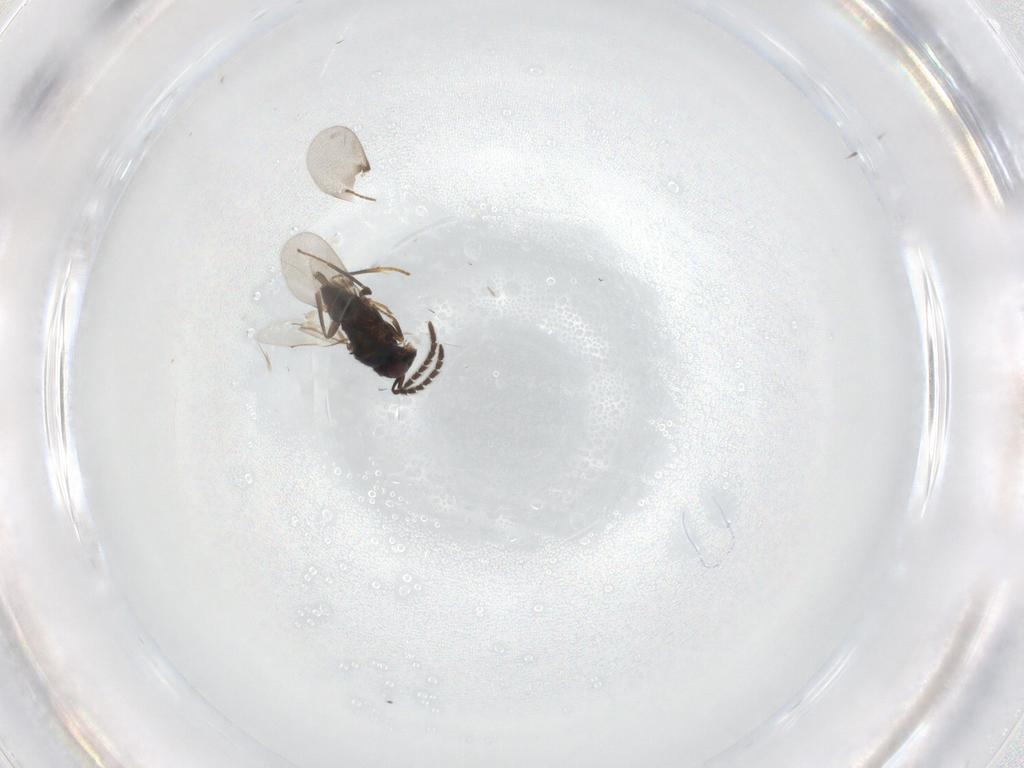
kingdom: Animalia
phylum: Arthropoda
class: Insecta
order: Hymenoptera
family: Encyrtidae
